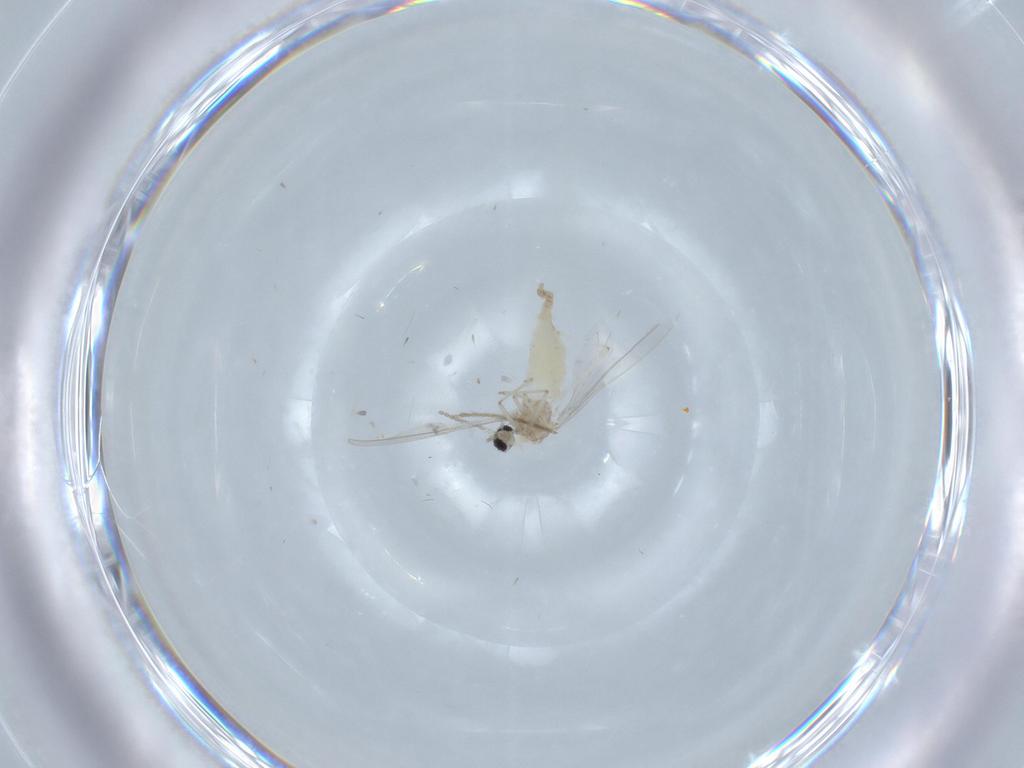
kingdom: Animalia
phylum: Arthropoda
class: Insecta
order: Diptera
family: Cecidomyiidae
